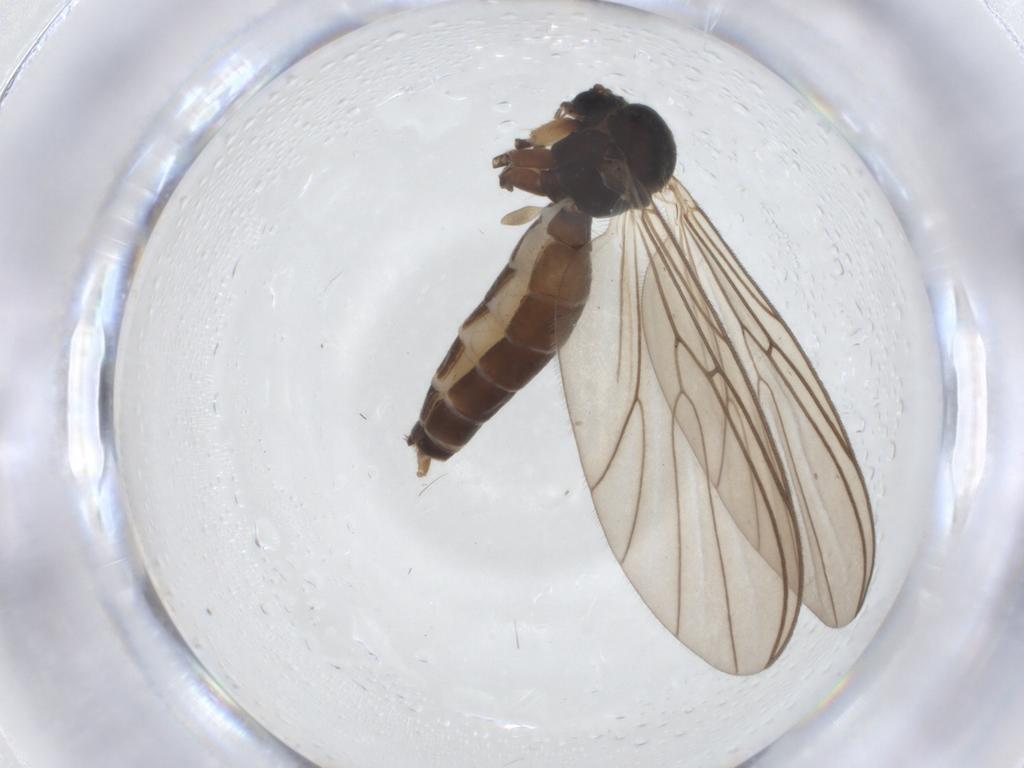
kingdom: Animalia
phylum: Arthropoda
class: Insecta
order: Diptera
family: Mycetophilidae
